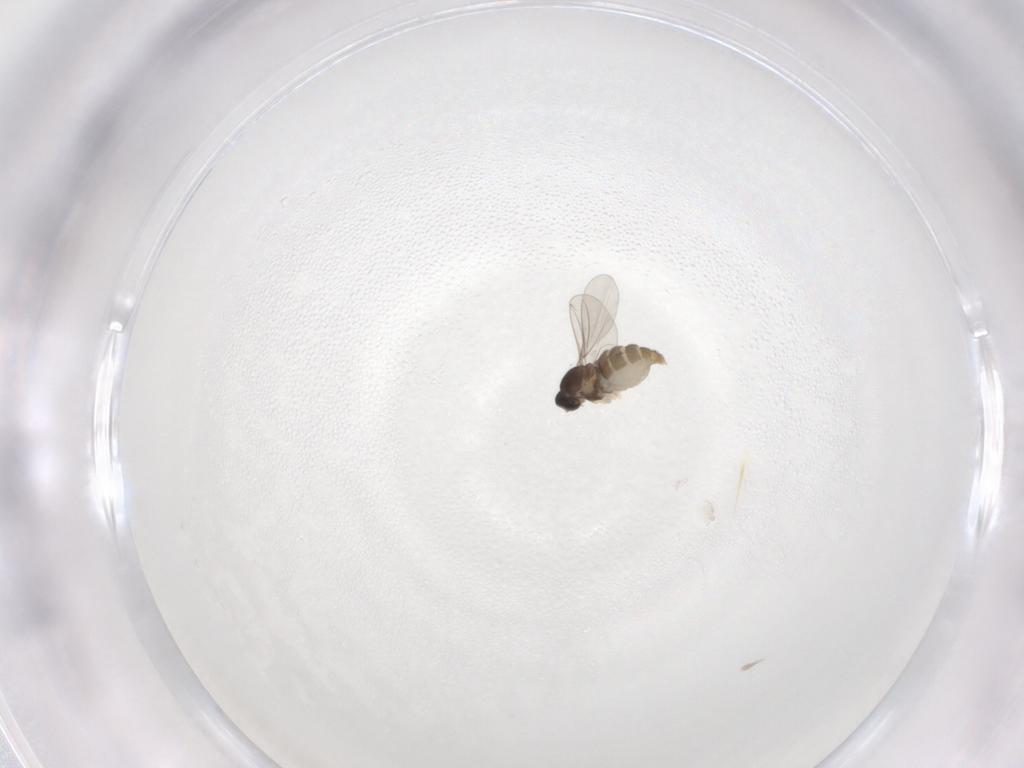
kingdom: Animalia
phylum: Arthropoda
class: Insecta
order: Diptera
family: Cecidomyiidae
